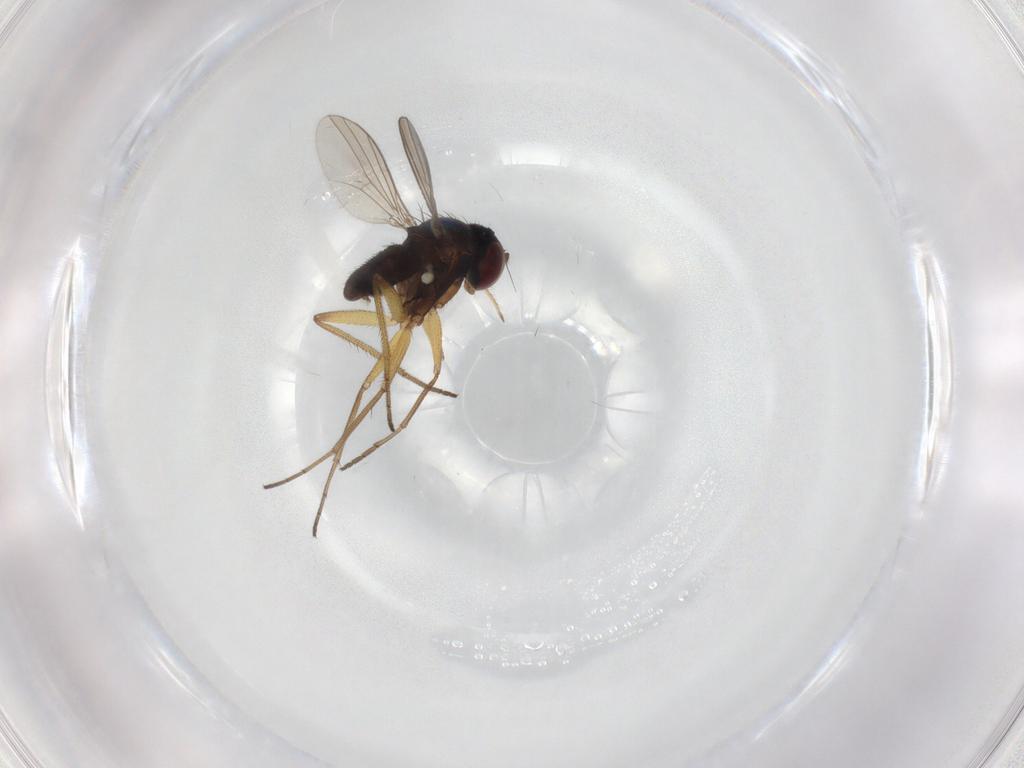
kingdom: Animalia
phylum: Arthropoda
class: Insecta
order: Diptera
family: Dolichopodidae
